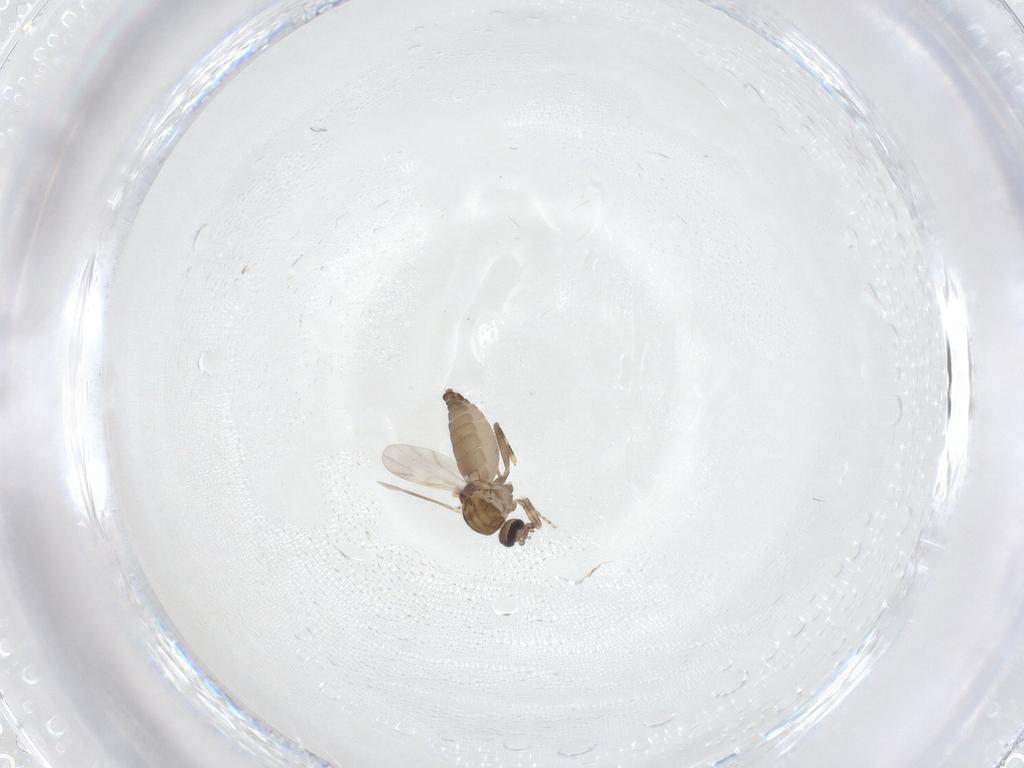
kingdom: Animalia
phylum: Arthropoda
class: Insecta
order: Diptera
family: Ceratopogonidae
